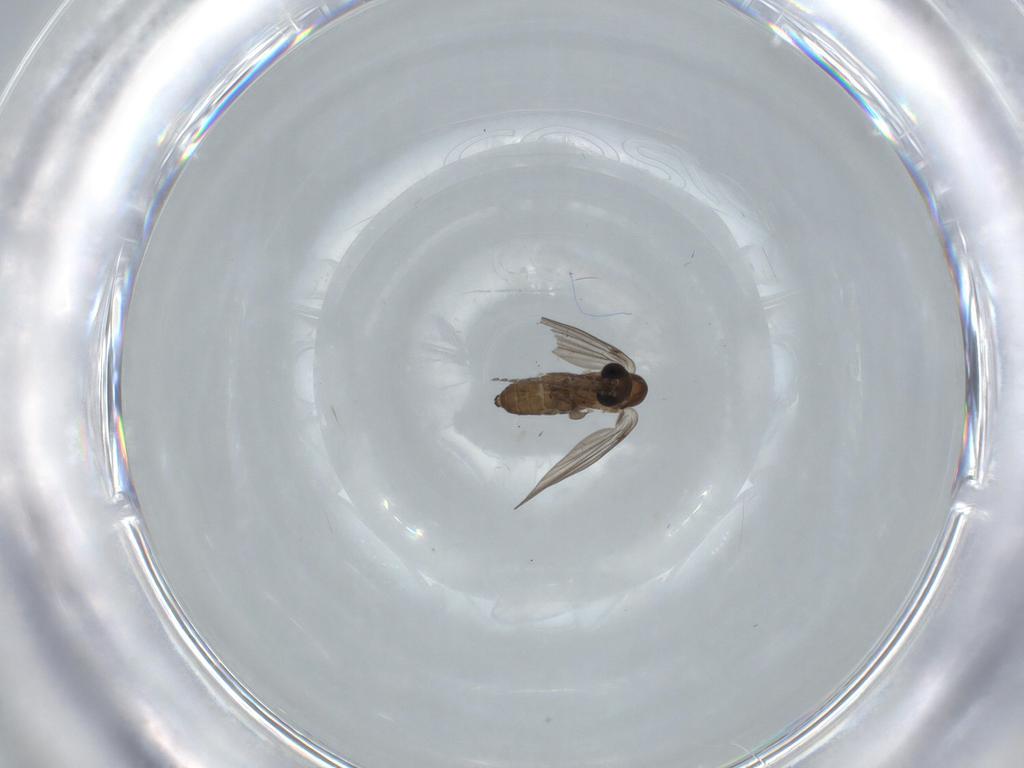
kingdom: Animalia
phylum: Arthropoda
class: Insecta
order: Diptera
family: Psychodidae
